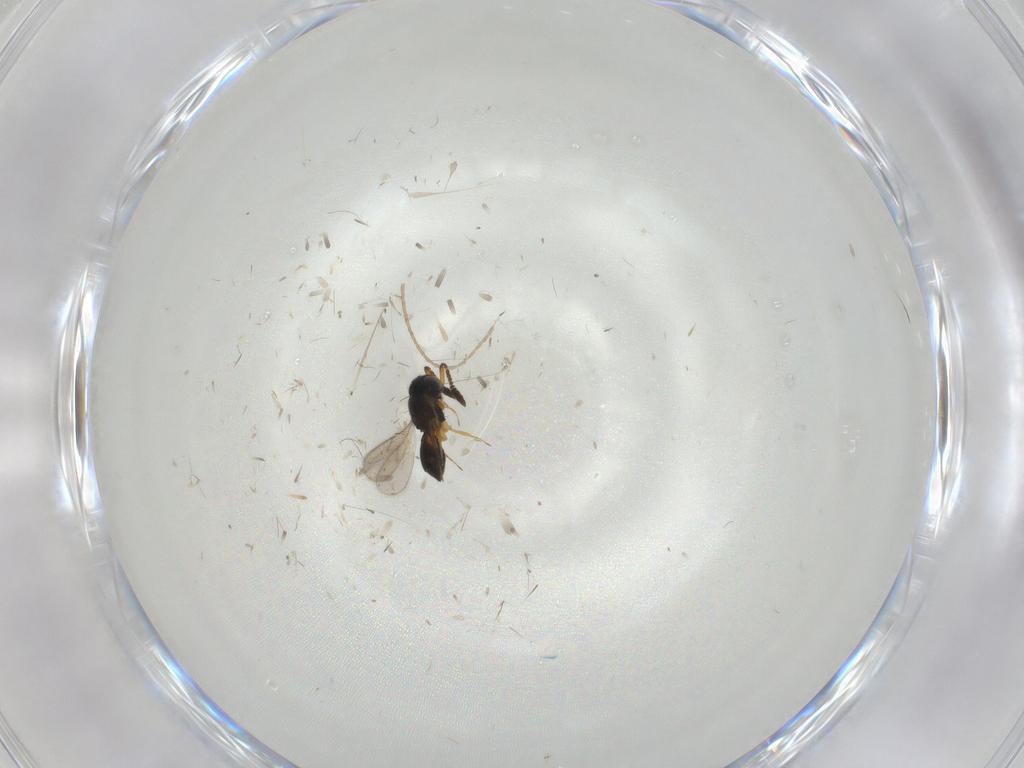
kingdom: Animalia
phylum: Arthropoda
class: Insecta
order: Hymenoptera
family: Scelionidae
